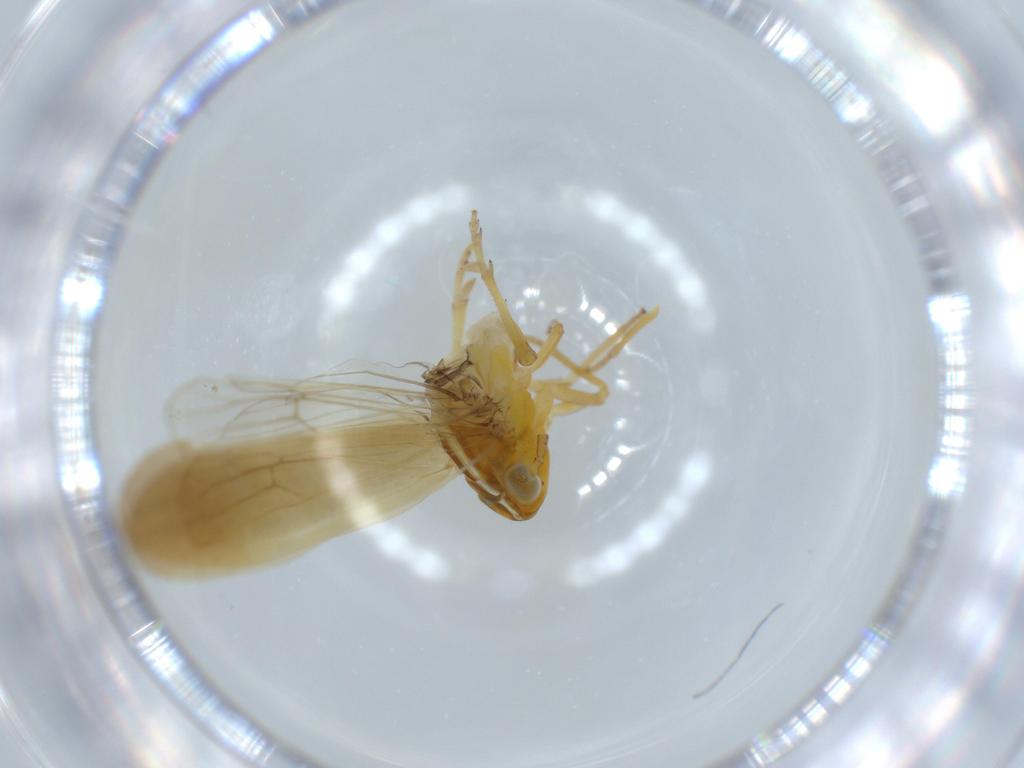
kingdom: Animalia
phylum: Arthropoda
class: Insecta
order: Hemiptera
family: Delphacidae
